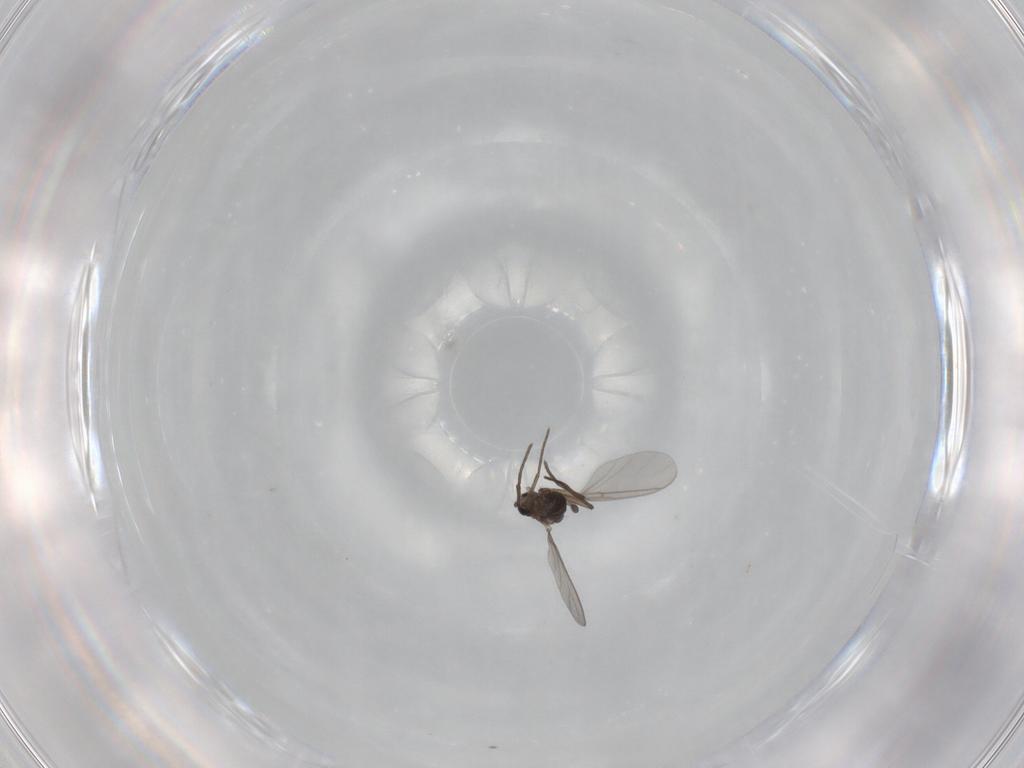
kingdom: Animalia
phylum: Arthropoda
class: Insecta
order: Diptera
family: Sciaridae
